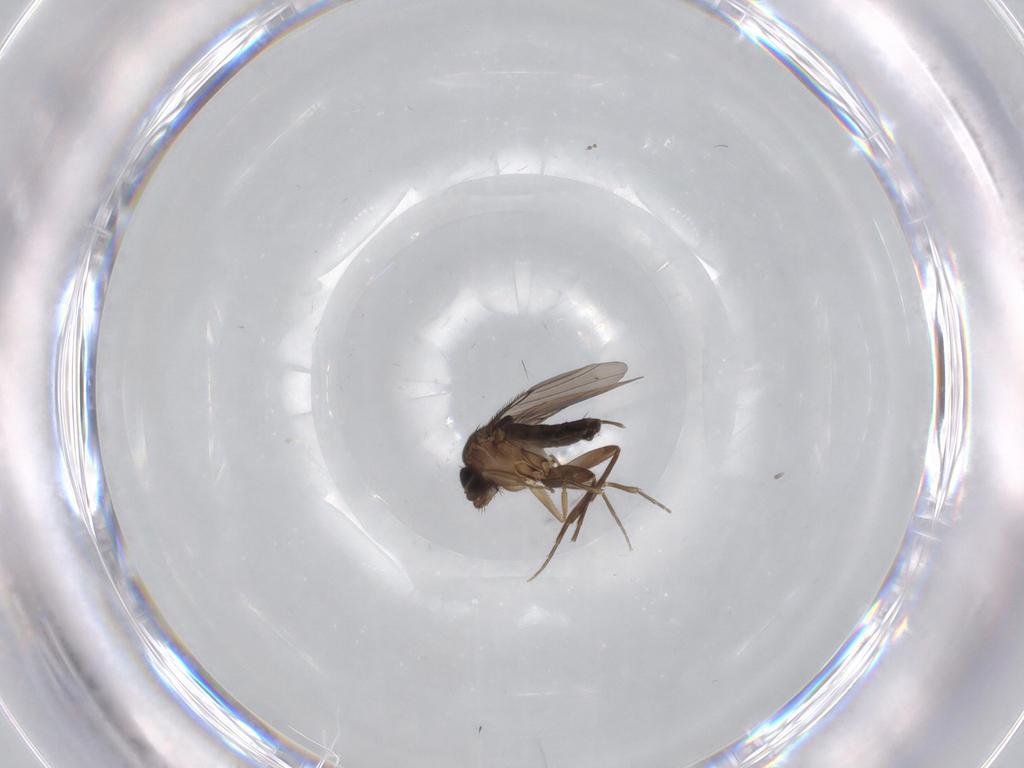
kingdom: Animalia
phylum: Arthropoda
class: Insecta
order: Diptera
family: Phoridae
